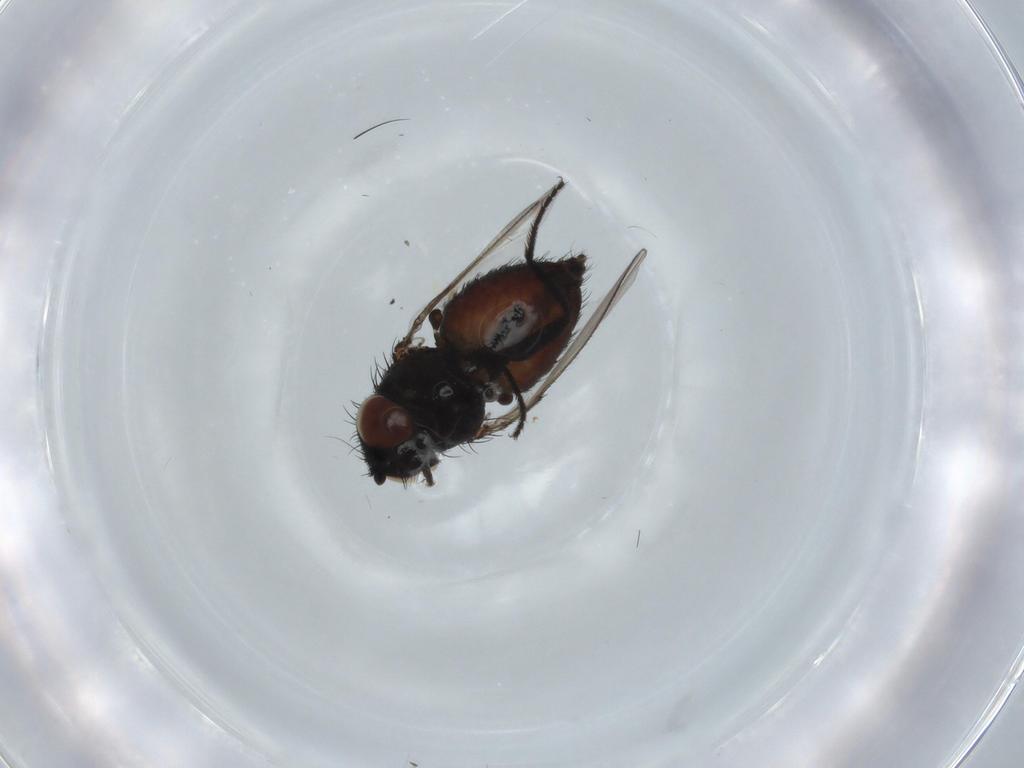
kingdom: Animalia
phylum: Arthropoda
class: Insecta
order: Diptera
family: Milichiidae
